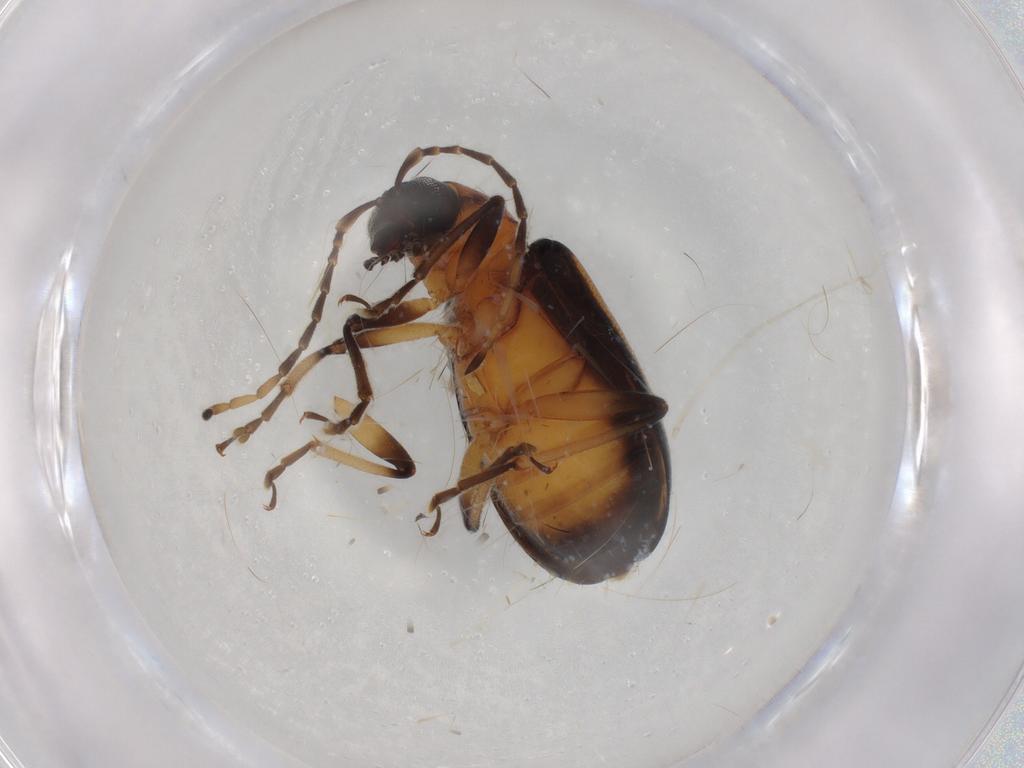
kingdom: Animalia
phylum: Arthropoda
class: Insecta
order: Coleoptera
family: Chrysomelidae
